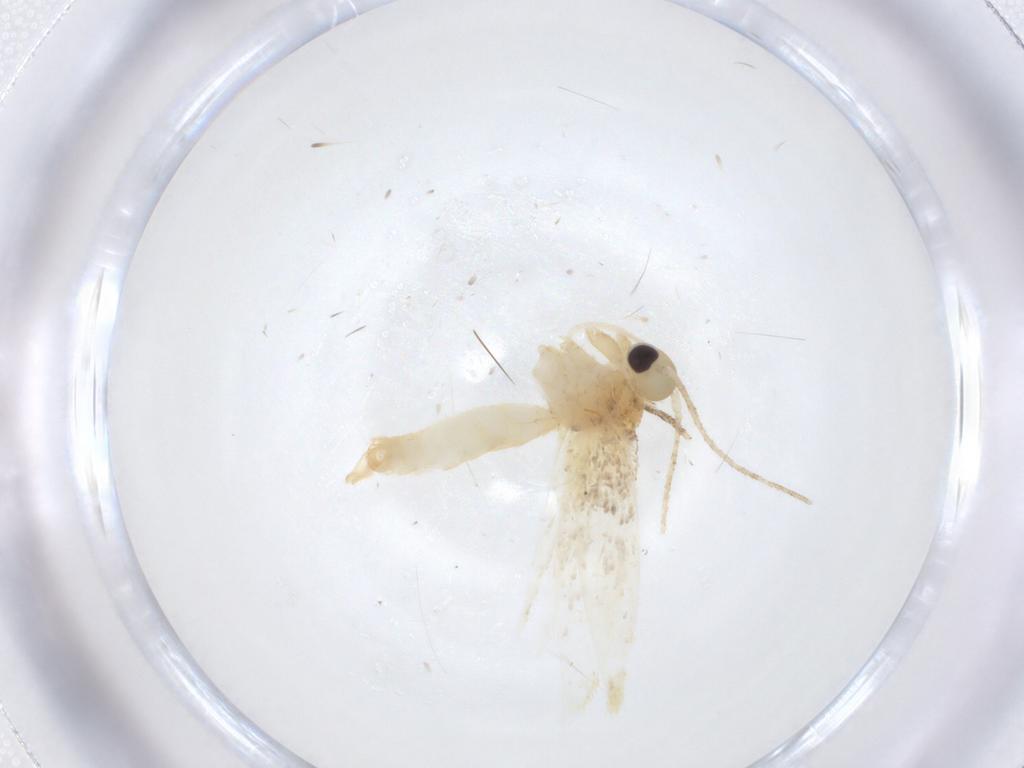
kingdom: Animalia
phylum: Arthropoda
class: Insecta
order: Lepidoptera
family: Erebidae
